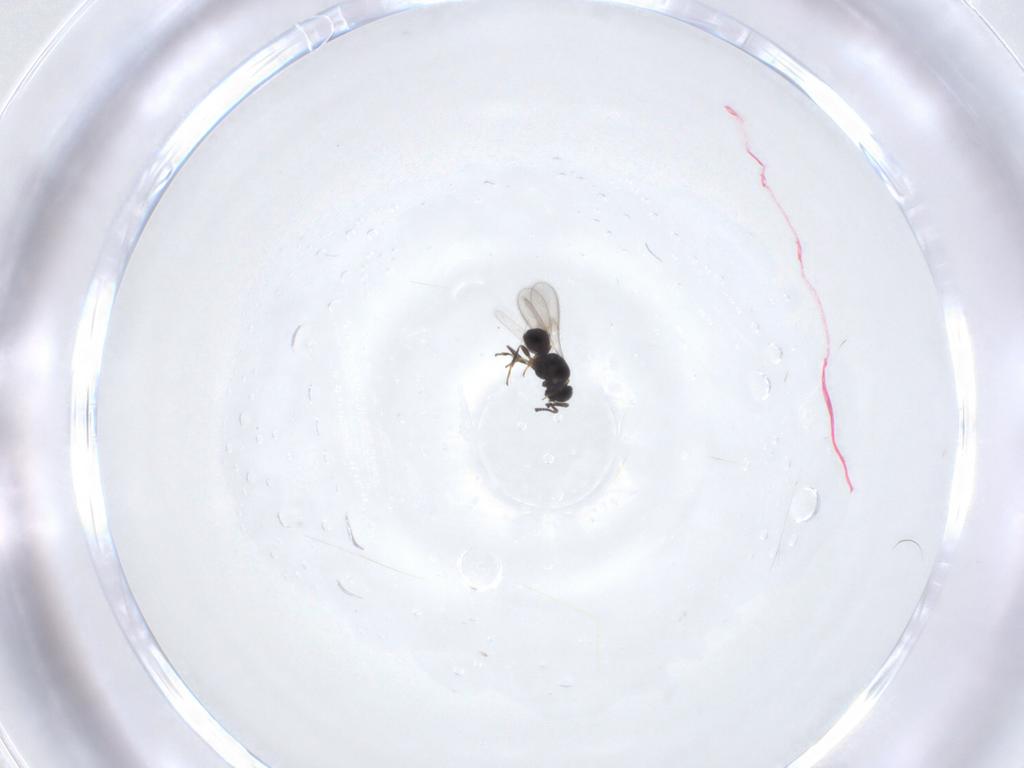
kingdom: Animalia
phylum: Arthropoda
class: Insecta
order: Hymenoptera
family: Scelionidae
